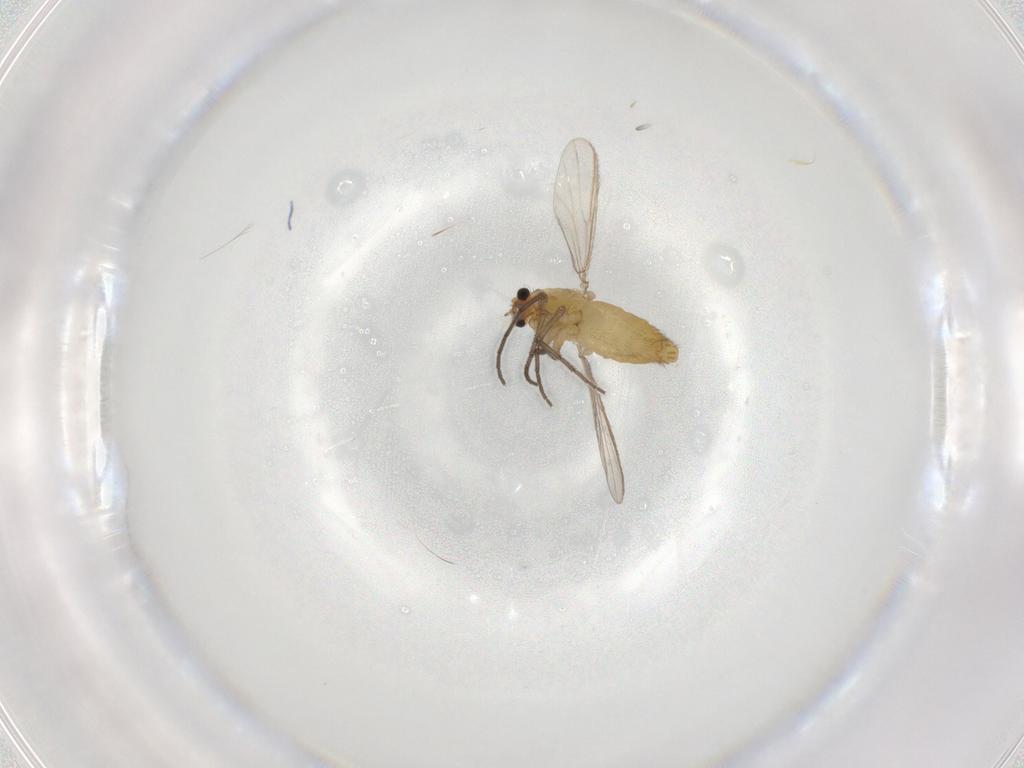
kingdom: Animalia
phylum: Arthropoda
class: Insecta
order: Diptera
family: Chironomidae
